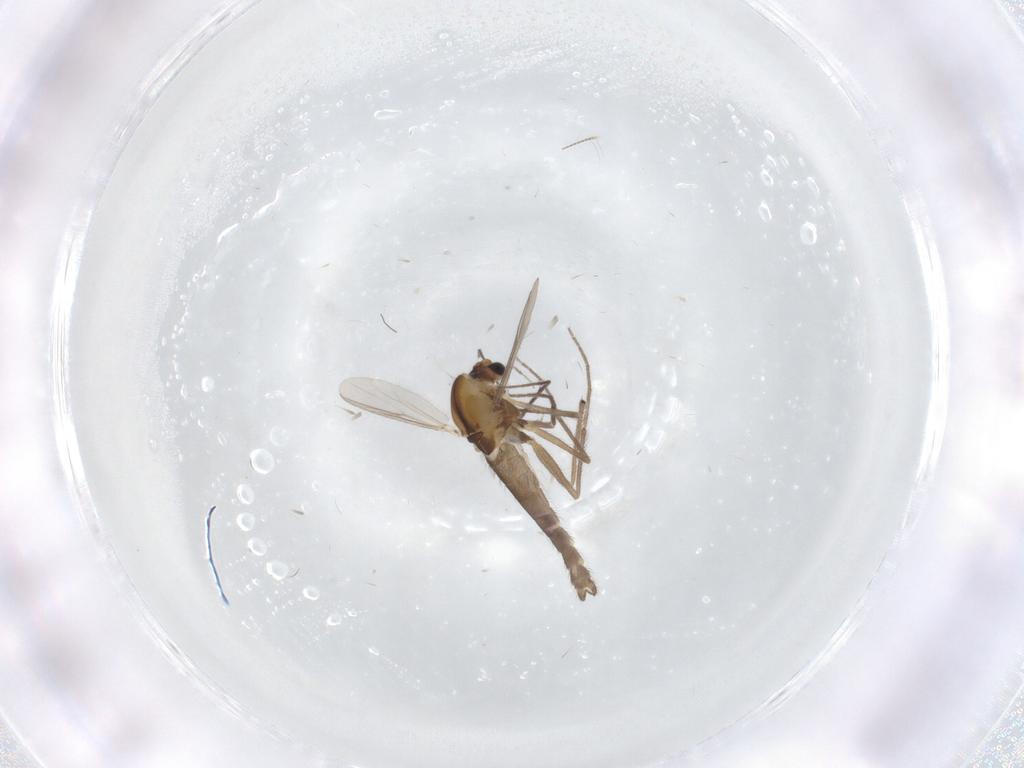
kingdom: Animalia
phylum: Arthropoda
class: Insecta
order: Diptera
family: Chironomidae
